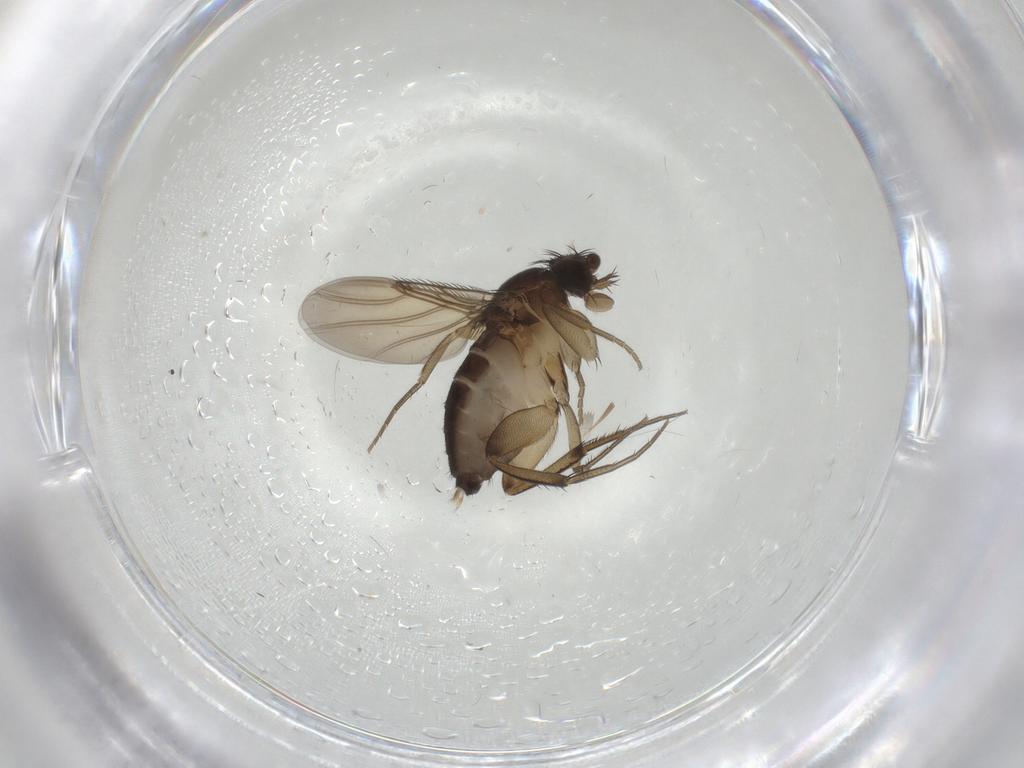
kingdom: Animalia
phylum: Arthropoda
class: Insecta
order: Diptera
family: Phoridae
